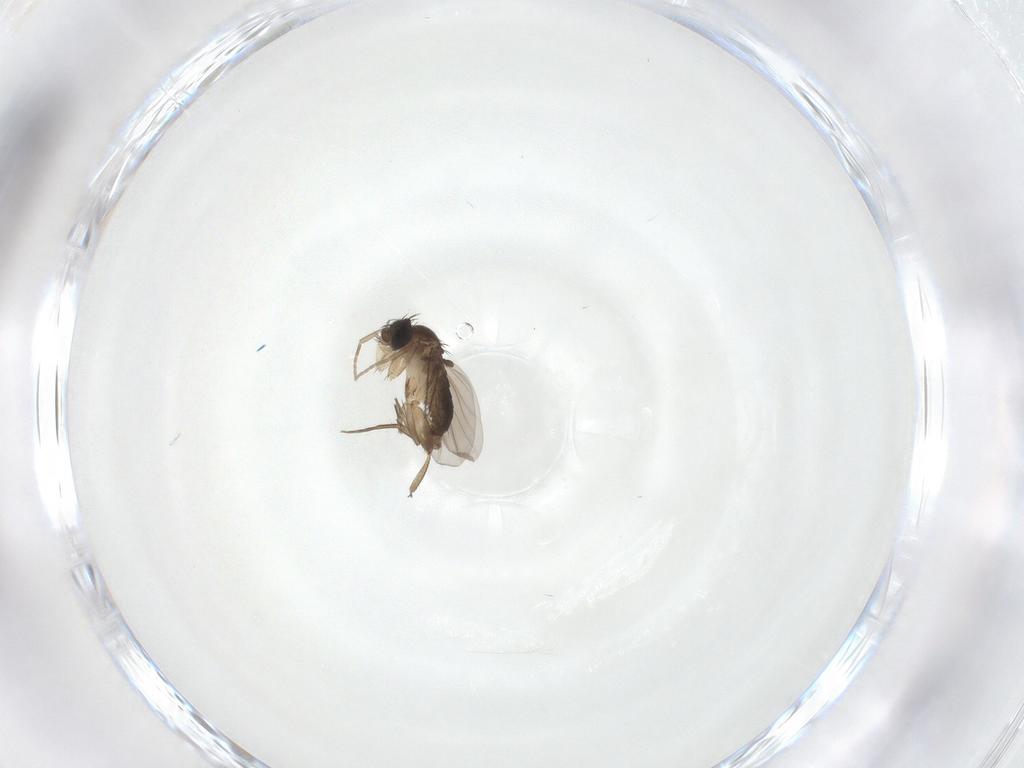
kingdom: Animalia
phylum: Arthropoda
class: Insecta
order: Diptera
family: Phoridae
